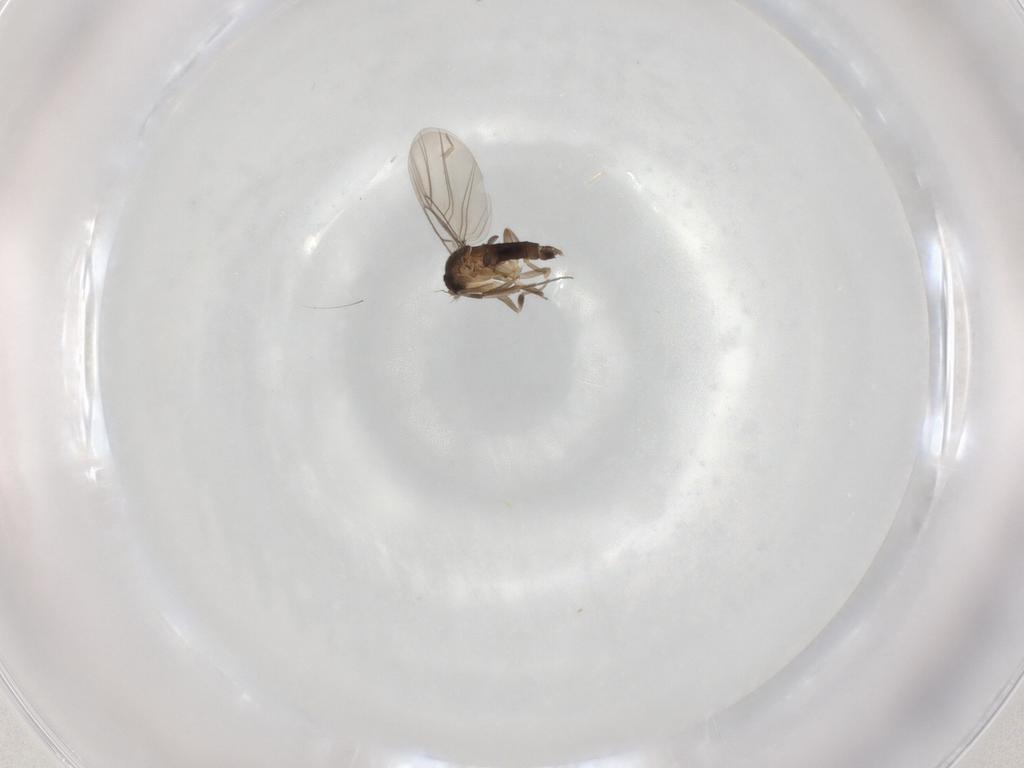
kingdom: Animalia
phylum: Arthropoda
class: Insecta
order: Diptera
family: Phoridae
